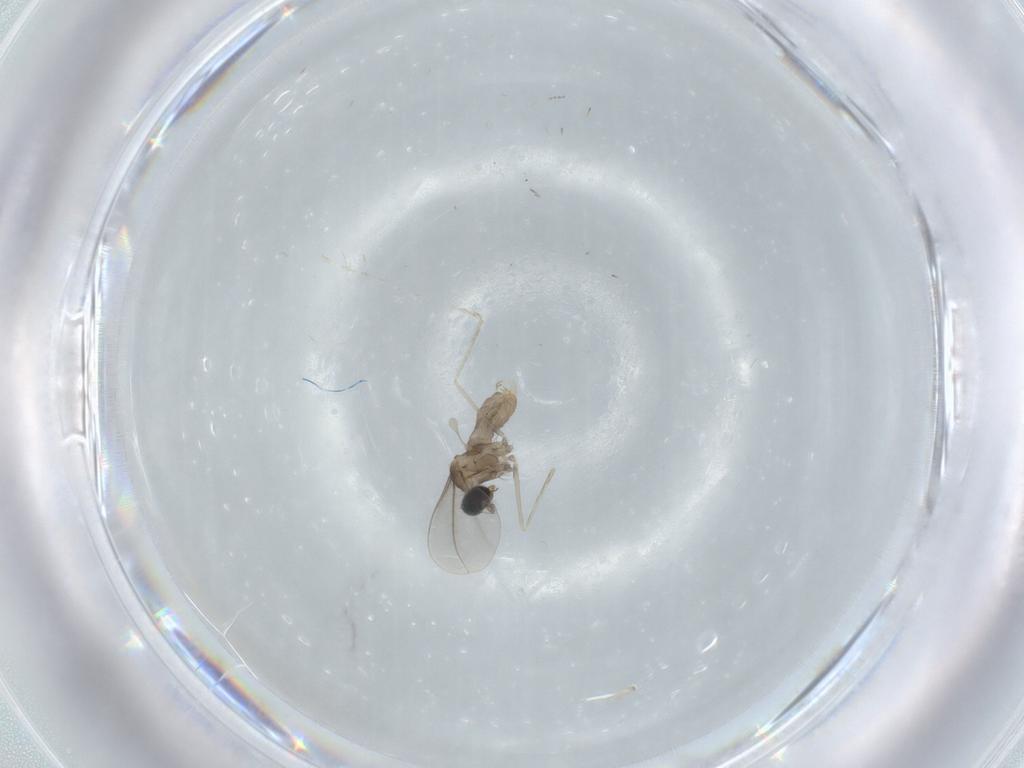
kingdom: Animalia
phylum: Arthropoda
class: Insecta
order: Diptera
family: Cecidomyiidae
